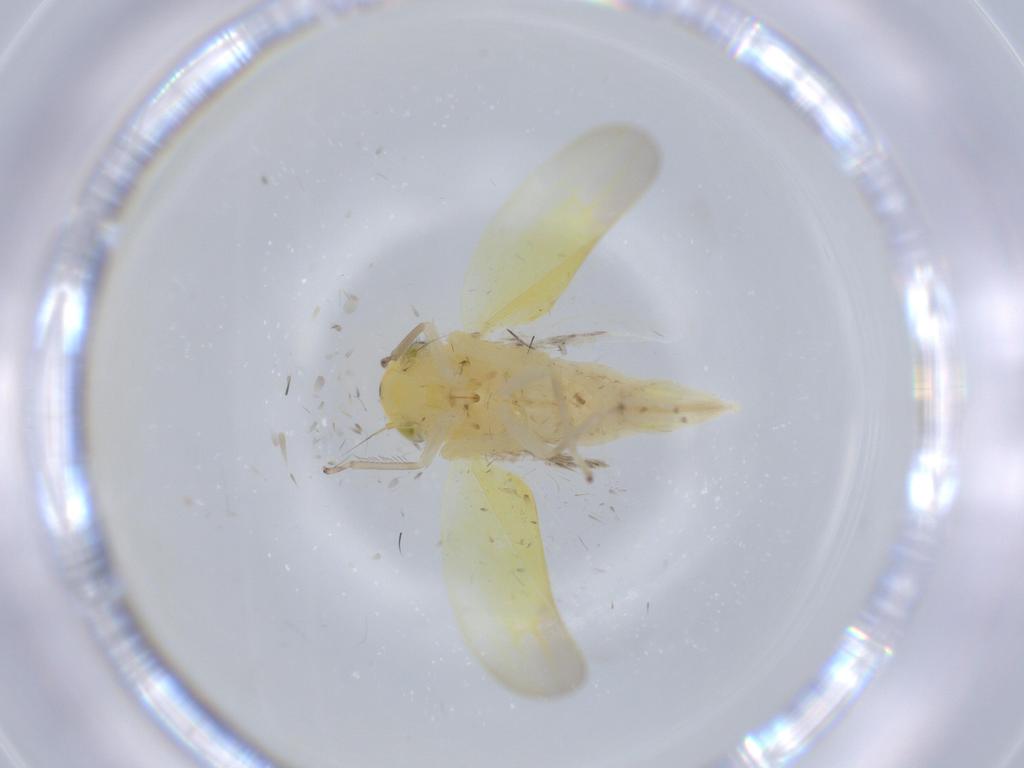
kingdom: Animalia
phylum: Arthropoda
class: Insecta
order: Hemiptera
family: Cicadellidae
